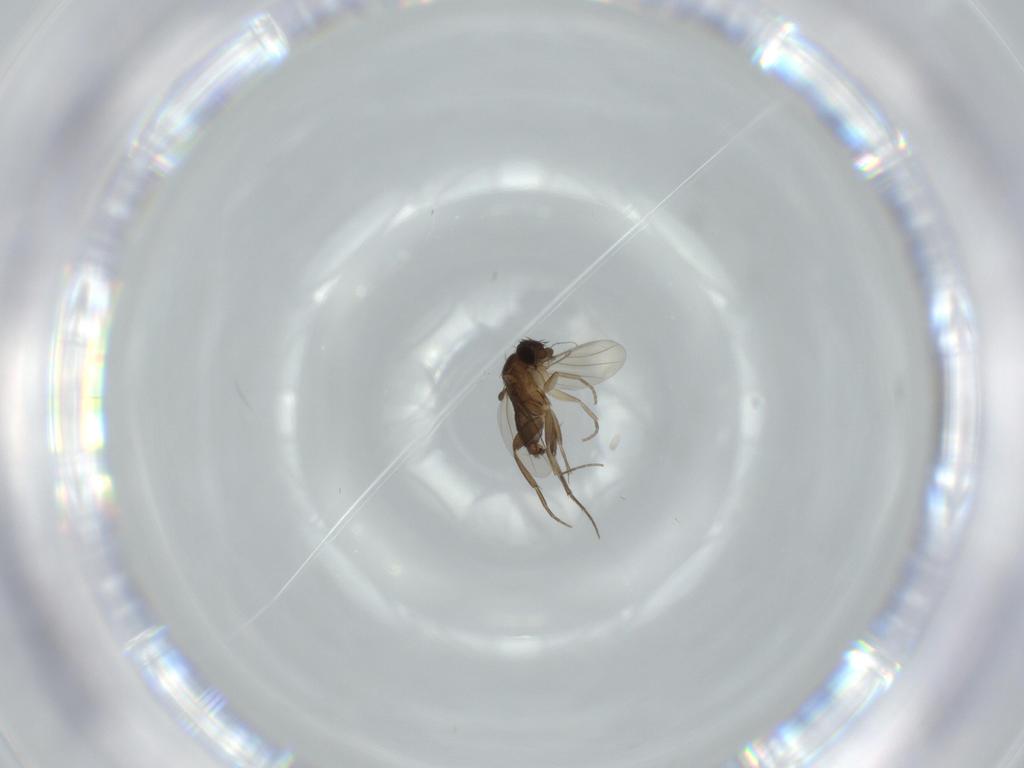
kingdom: Animalia
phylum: Arthropoda
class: Insecta
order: Diptera
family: Phoridae
